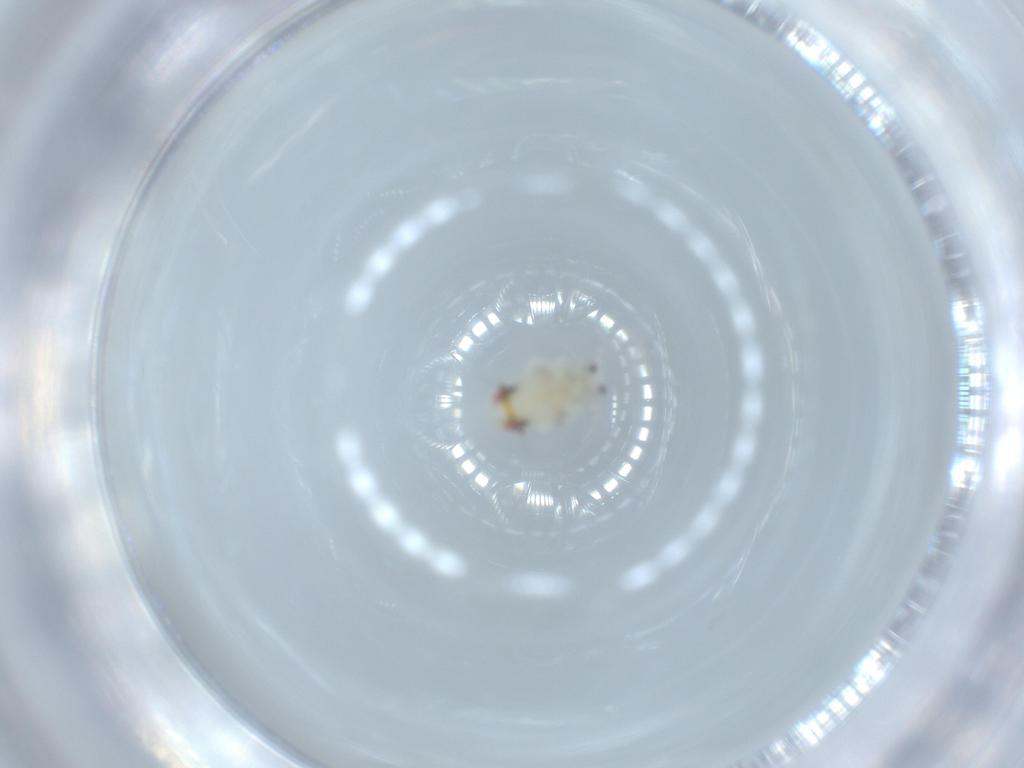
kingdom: Animalia
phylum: Arthropoda
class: Insecta
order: Hemiptera
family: Nogodinidae
